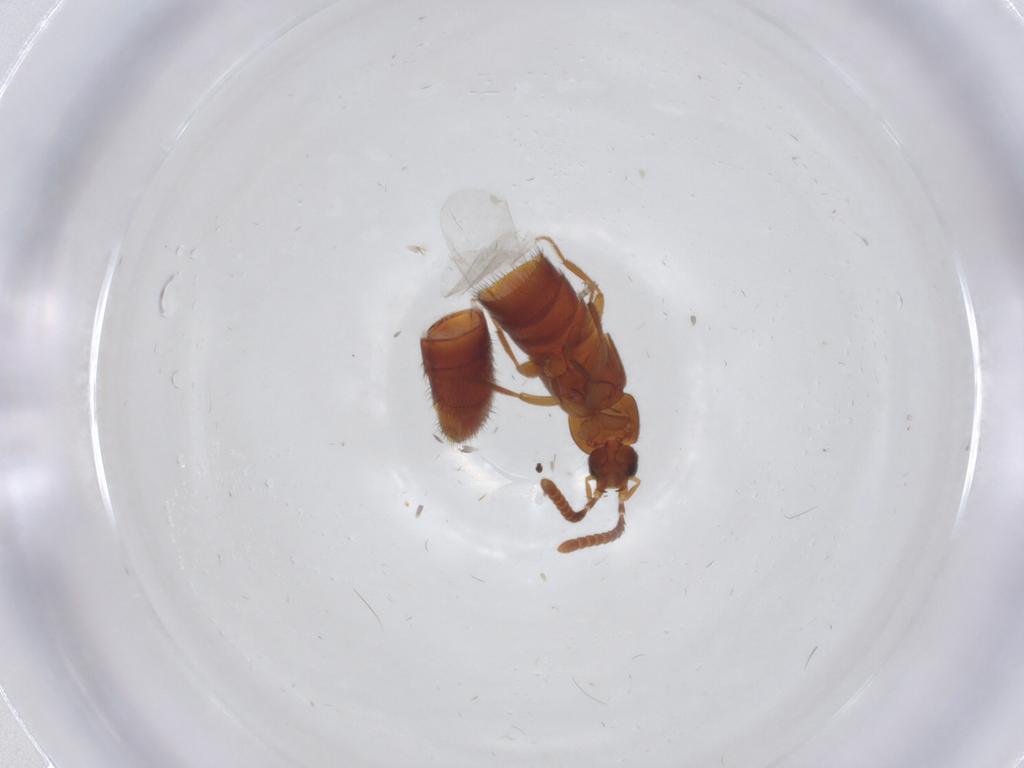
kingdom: Animalia
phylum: Arthropoda
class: Insecta
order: Coleoptera
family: Staphylinidae
